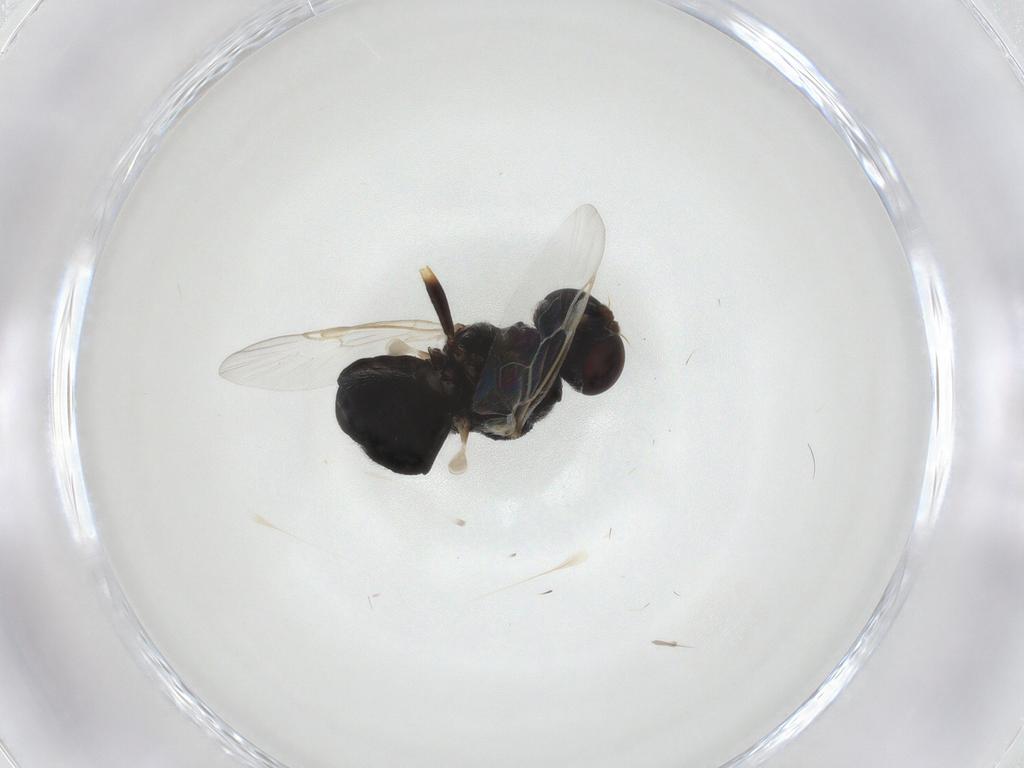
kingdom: Animalia
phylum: Arthropoda
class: Insecta
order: Diptera
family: Stratiomyidae
